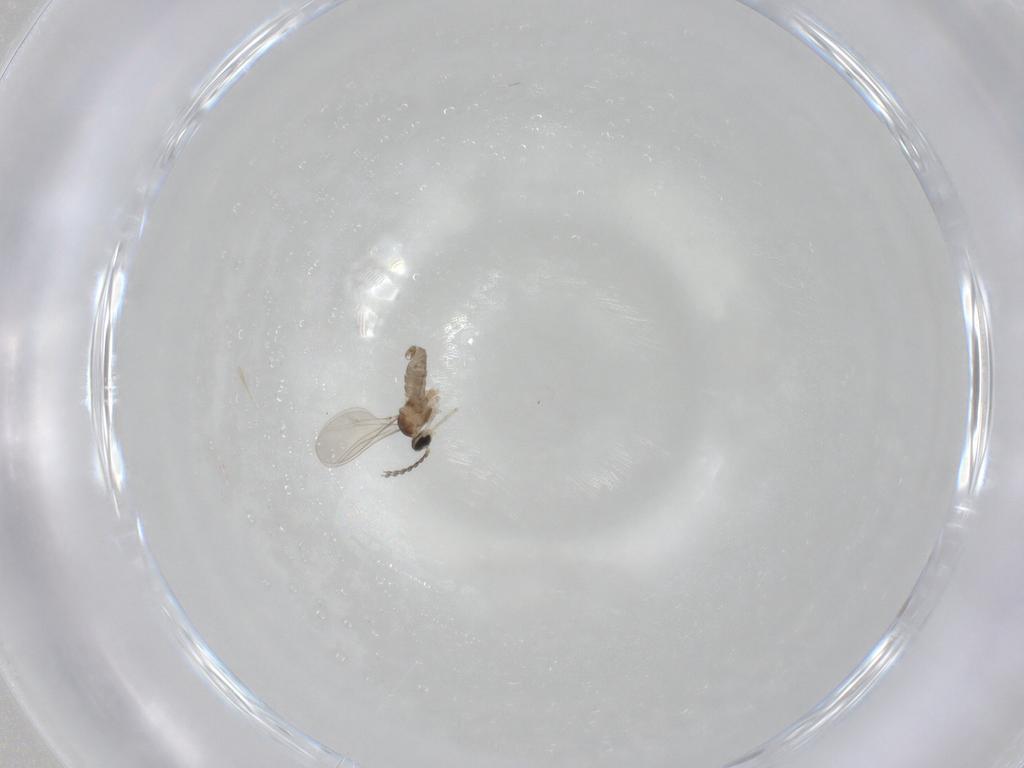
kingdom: Animalia
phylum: Arthropoda
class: Insecta
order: Diptera
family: Cecidomyiidae
